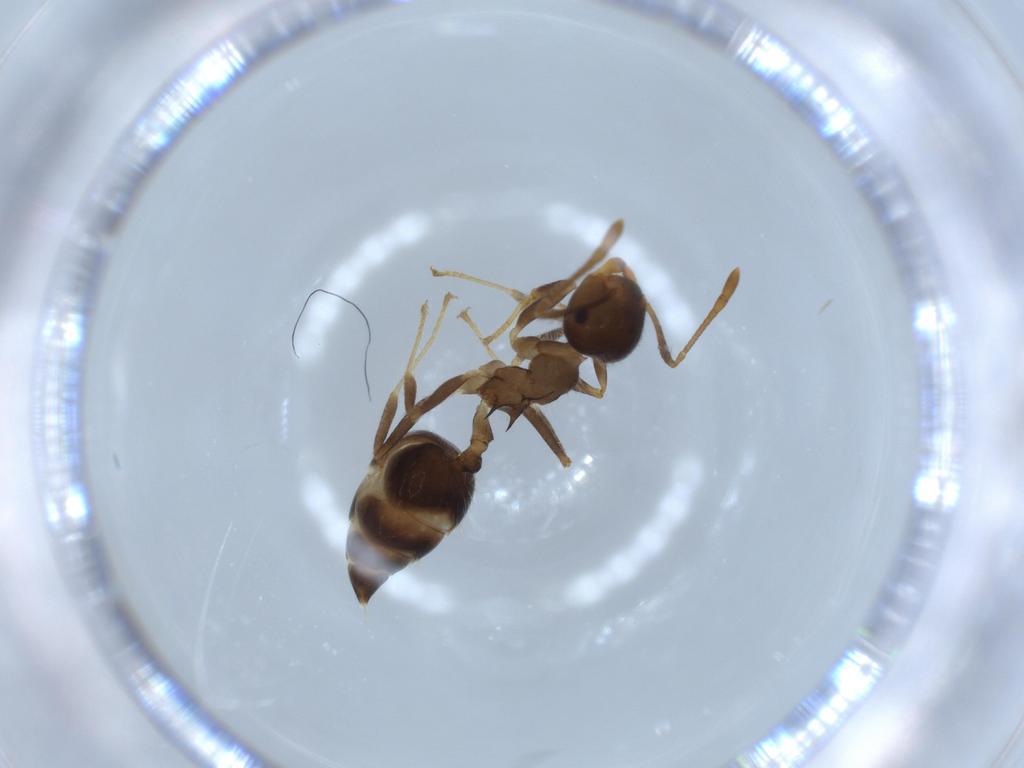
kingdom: Animalia
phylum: Arthropoda
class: Insecta
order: Hymenoptera
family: Formicidae
